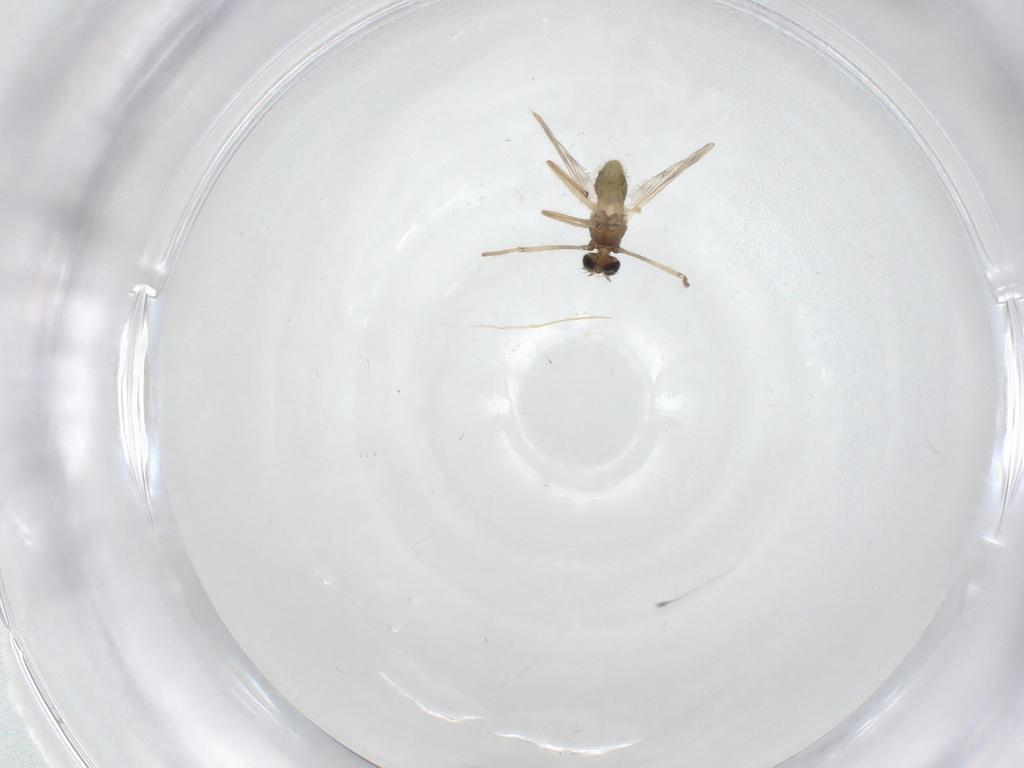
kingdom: Animalia
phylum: Arthropoda
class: Insecta
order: Diptera
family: Chironomidae
